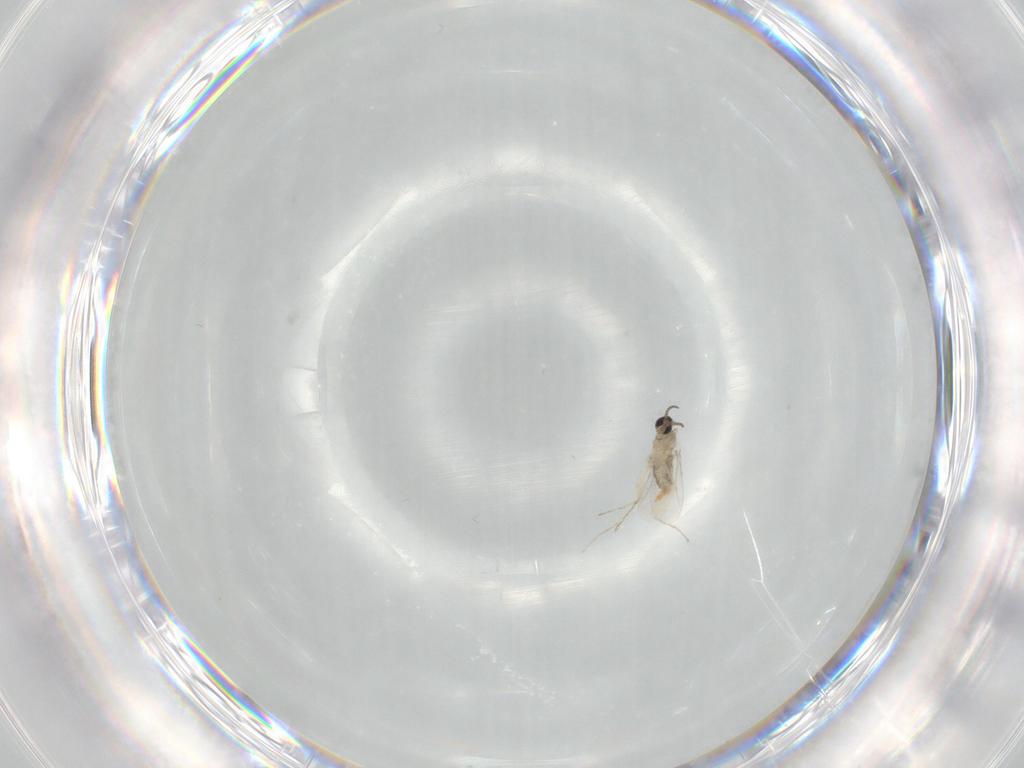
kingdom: Animalia
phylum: Arthropoda
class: Insecta
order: Diptera
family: Cecidomyiidae
